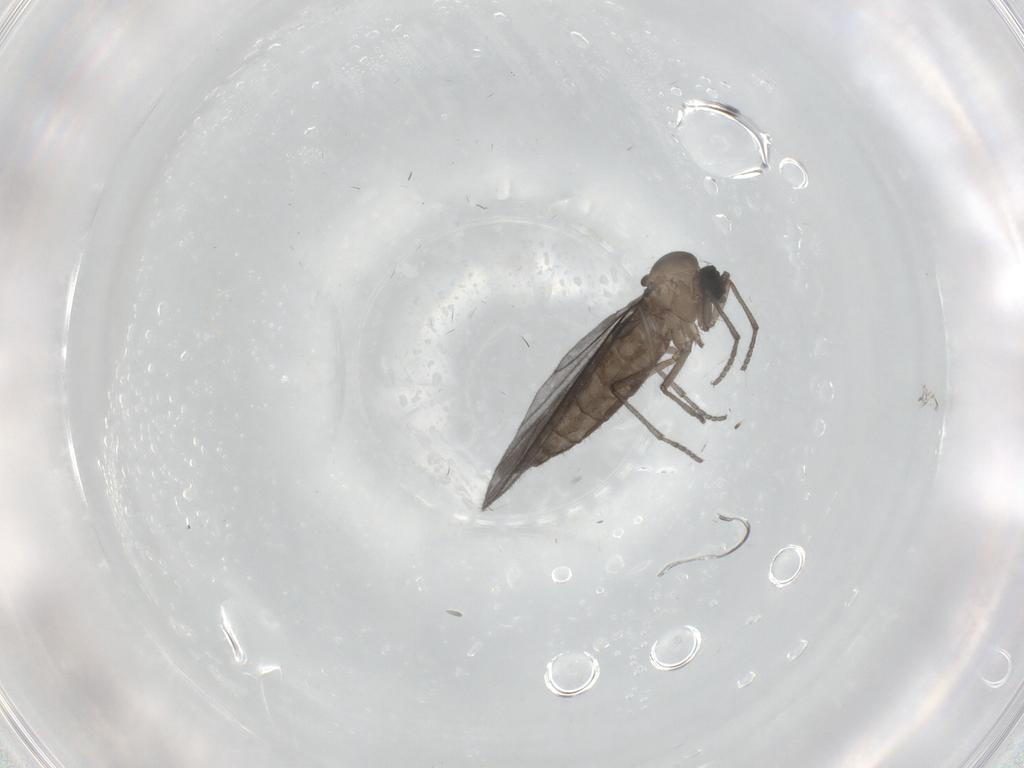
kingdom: Animalia
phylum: Arthropoda
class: Insecta
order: Diptera
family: Sciaridae
